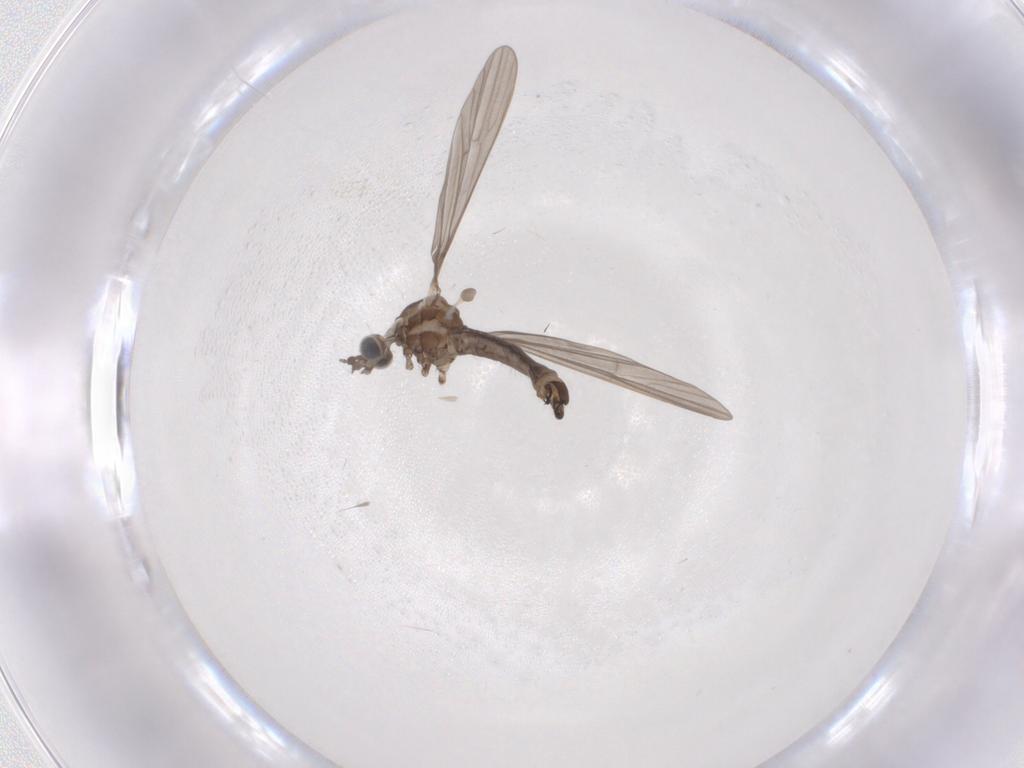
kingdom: Animalia
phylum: Arthropoda
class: Insecta
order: Diptera
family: Limoniidae
